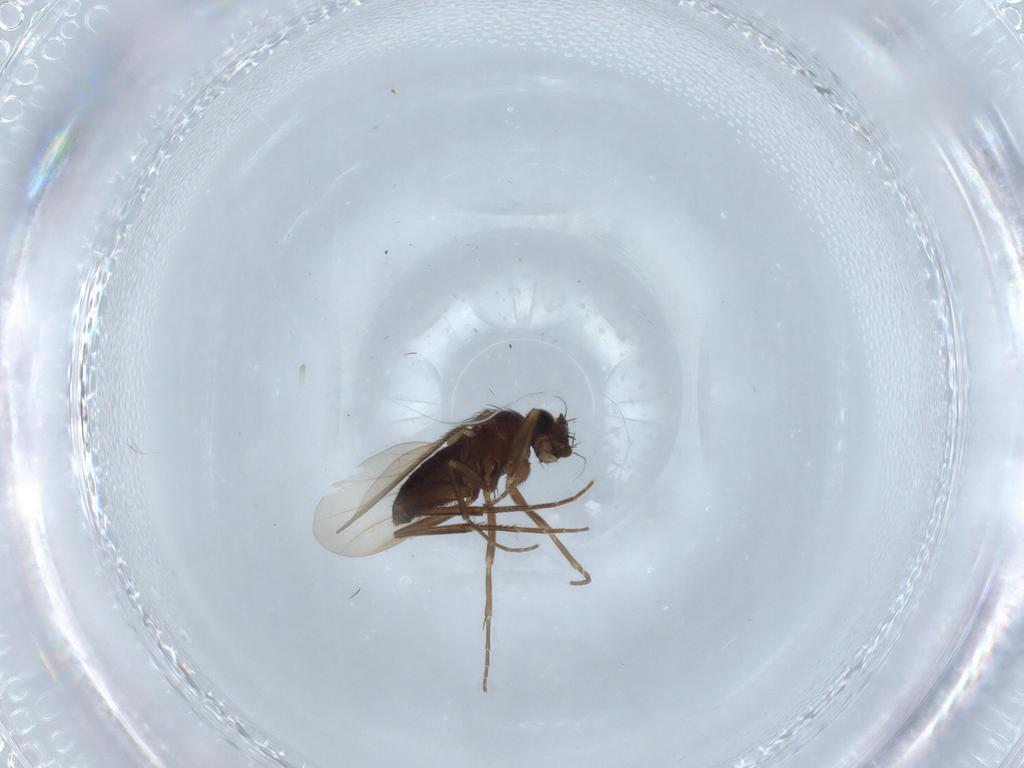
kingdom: Animalia
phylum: Arthropoda
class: Insecta
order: Diptera
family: Phoridae
